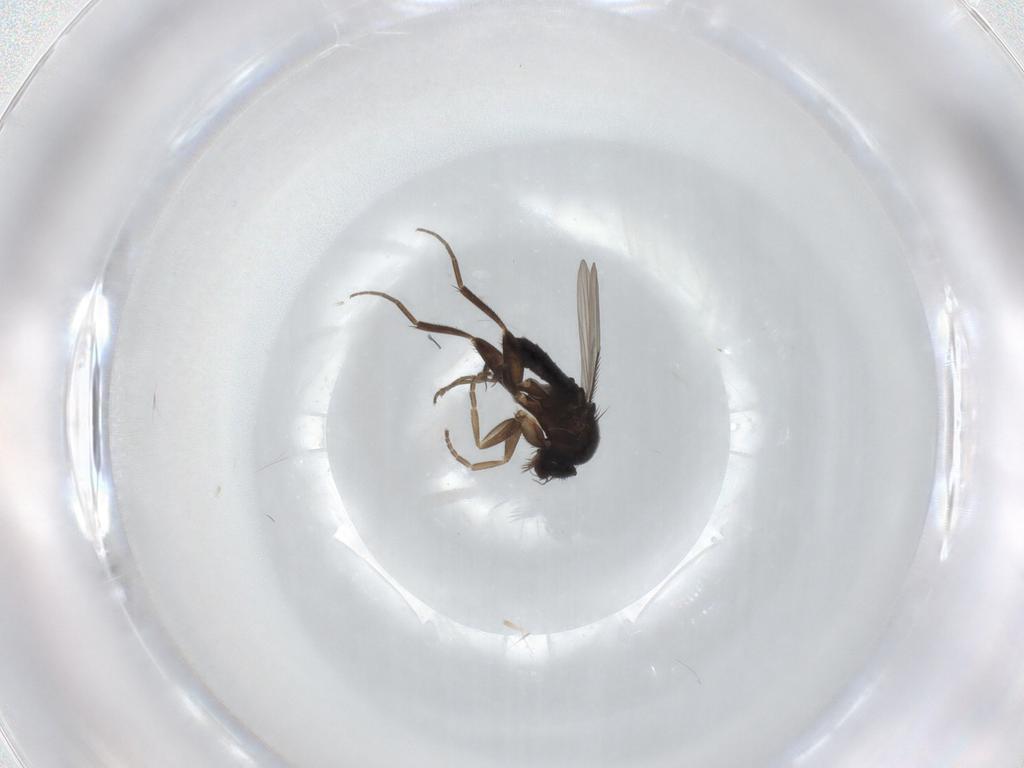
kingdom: Animalia
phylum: Arthropoda
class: Insecta
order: Diptera
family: Phoridae
